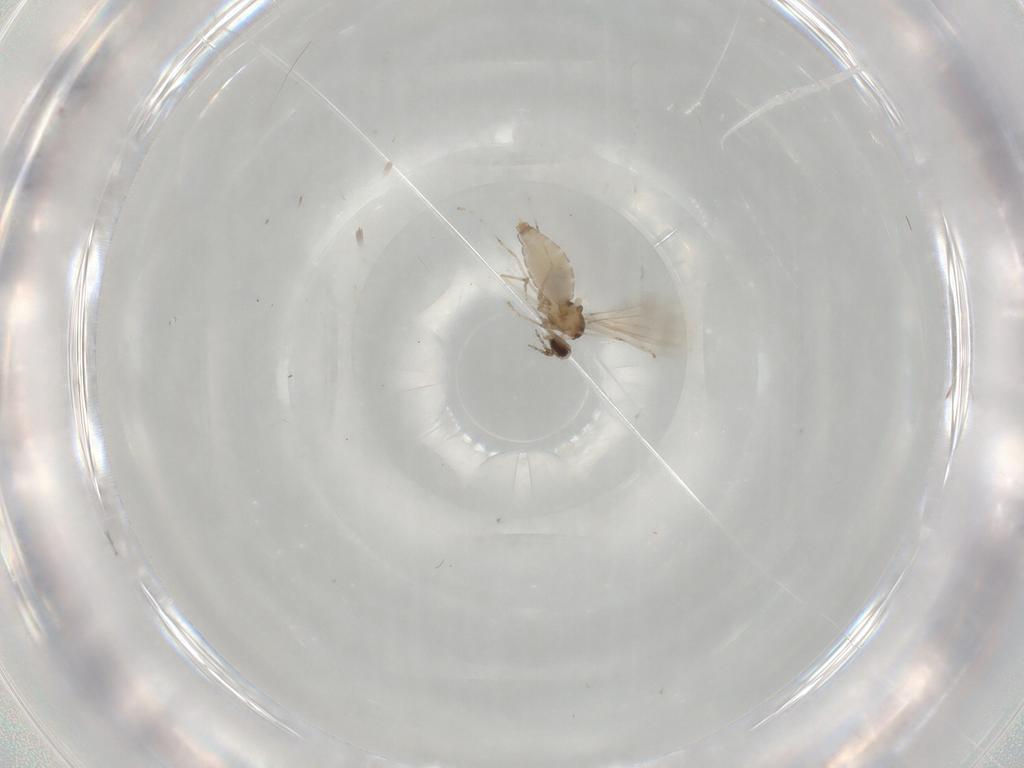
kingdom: Animalia
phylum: Arthropoda
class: Insecta
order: Diptera
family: Cecidomyiidae
